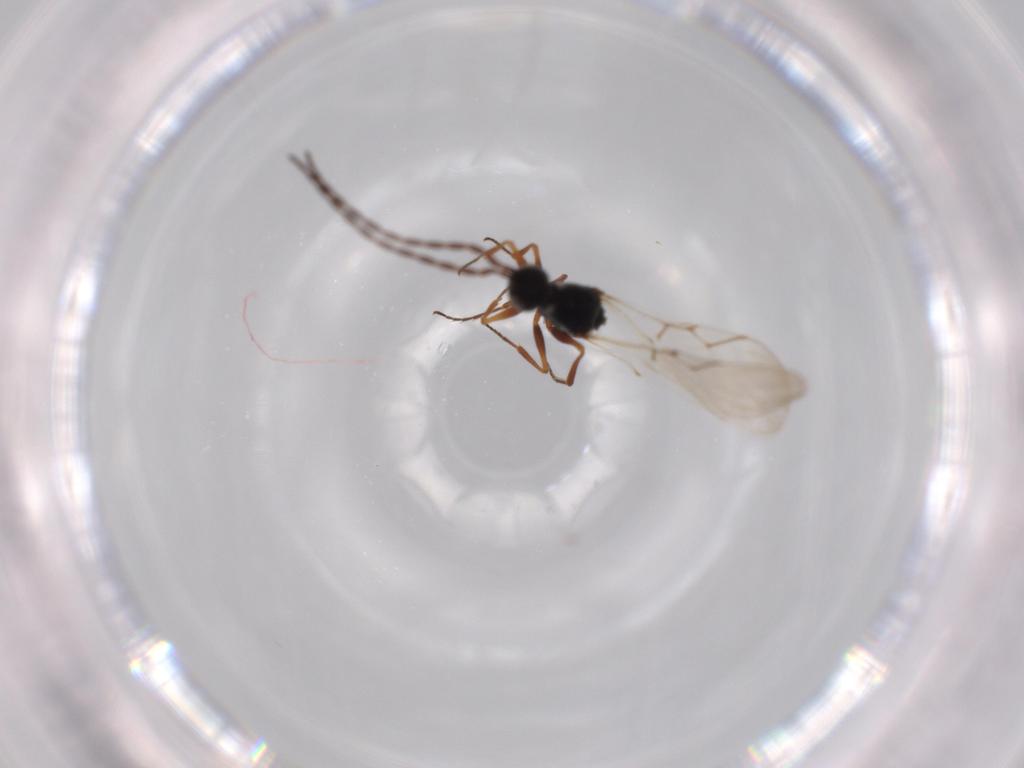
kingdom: Animalia
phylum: Arthropoda
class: Insecta
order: Hymenoptera
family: Figitidae
